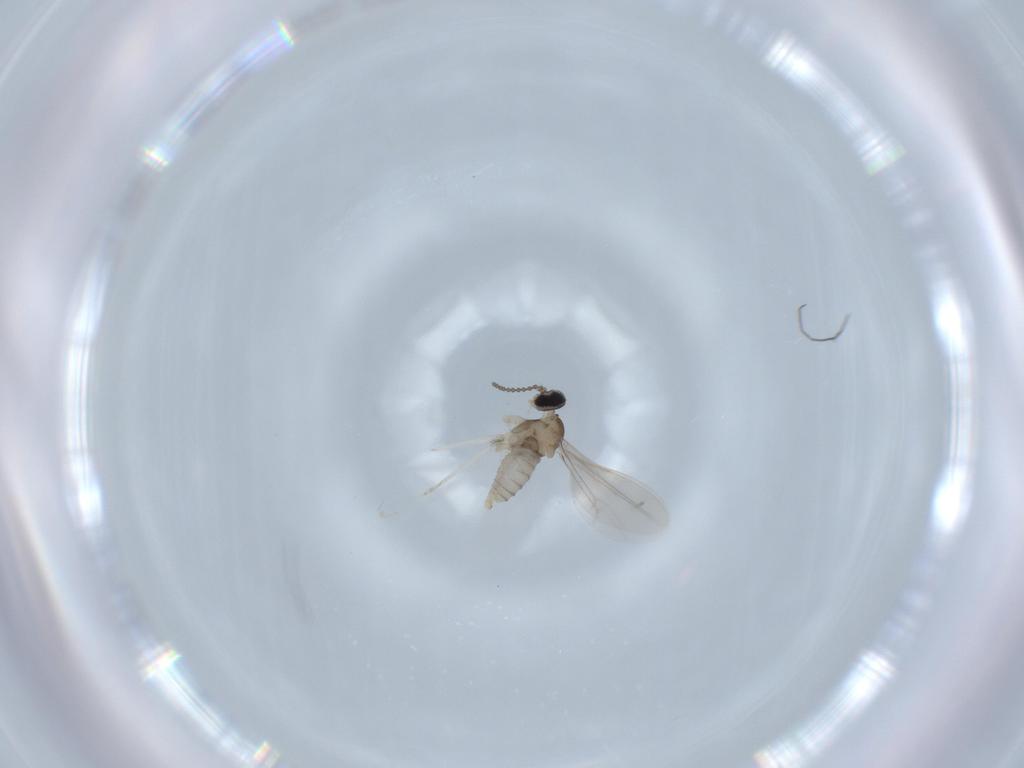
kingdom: Animalia
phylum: Arthropoda
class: Insecta
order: Diptera
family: Cecidomyiidae
